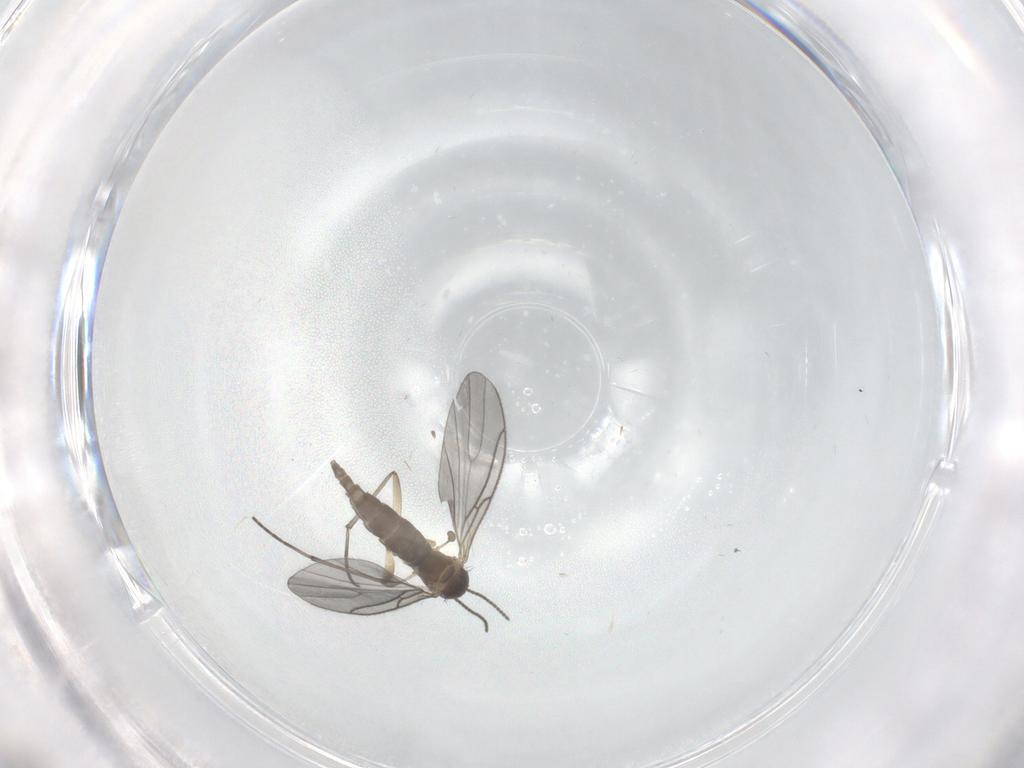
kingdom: Animalia
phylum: Arthropoda
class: Insecta
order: Diptera
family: Sciaridae
